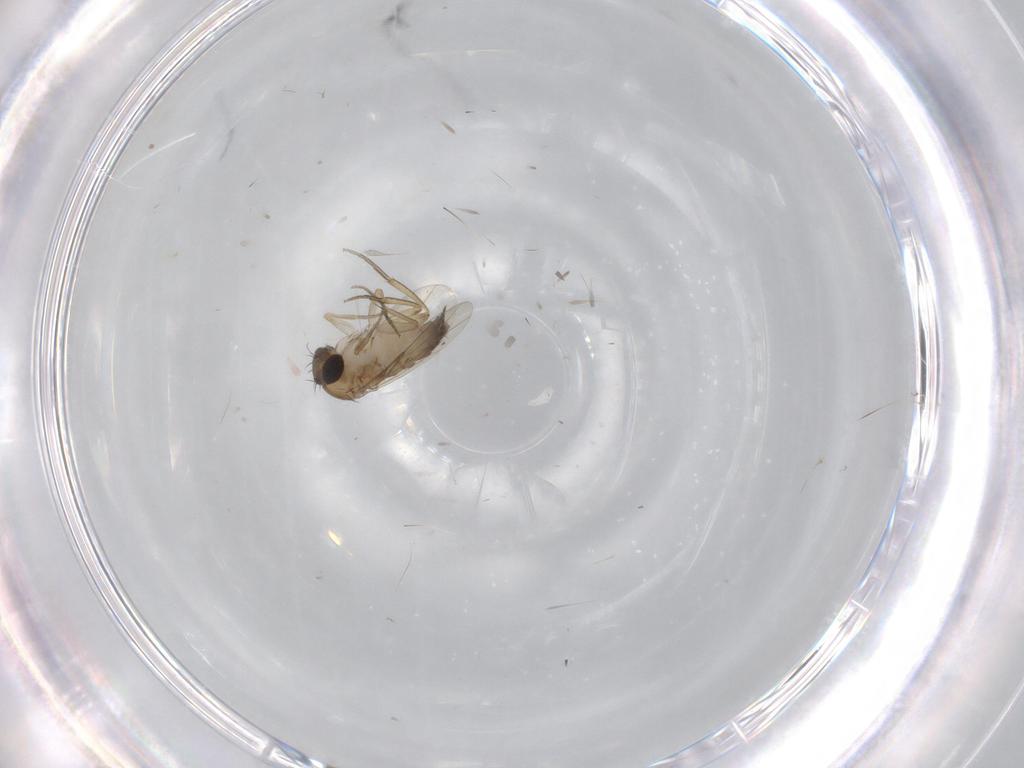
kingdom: Animalia
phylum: Arthropoda
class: Insecta
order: Diptera
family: Phoridae
